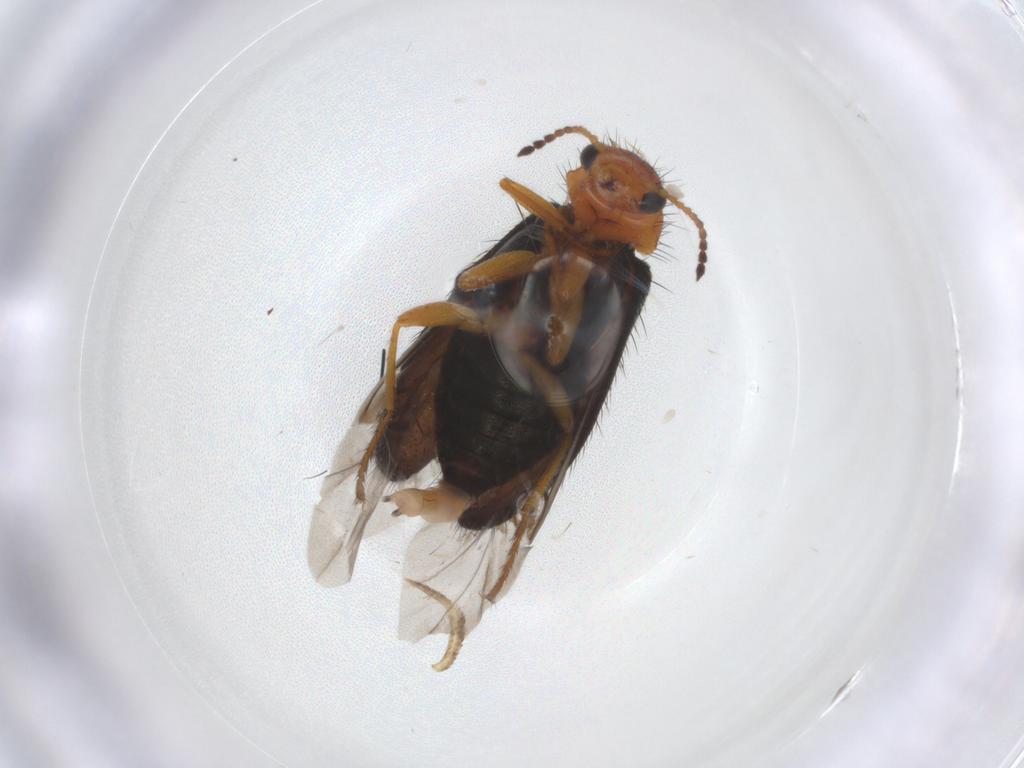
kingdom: Animalia
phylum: Arthropoda
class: Insecta
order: Coleoptera
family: Melyridae
